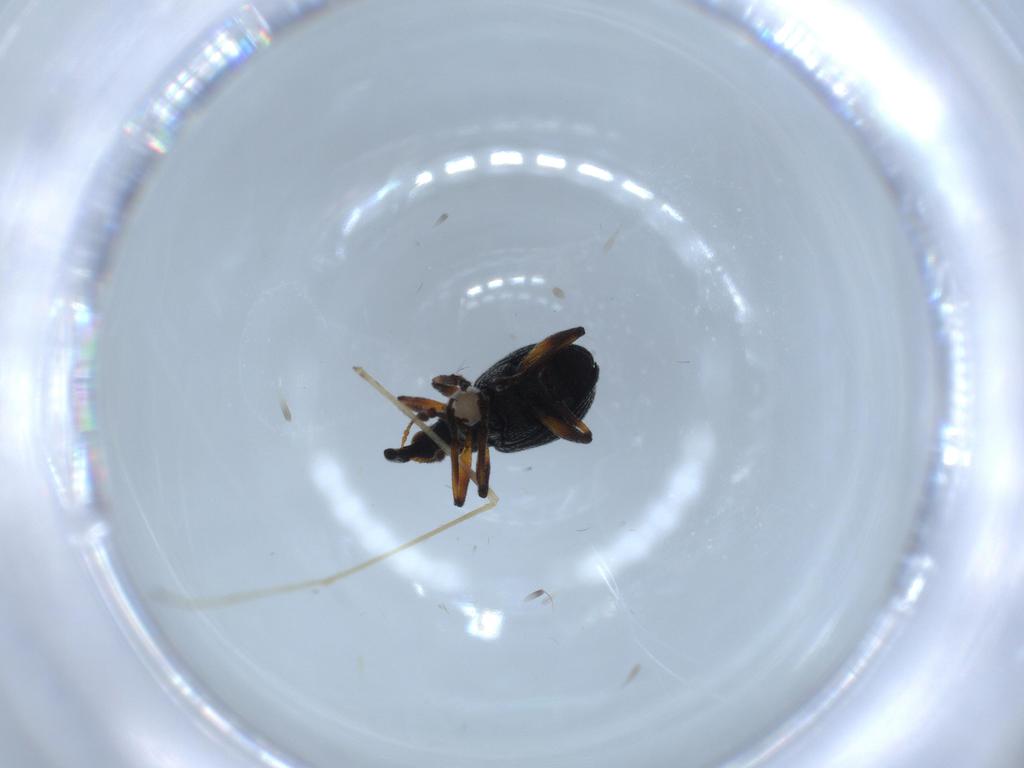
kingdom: Animalia
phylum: Arthropoda
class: Insecta
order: Coleoptera
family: Brentidae
